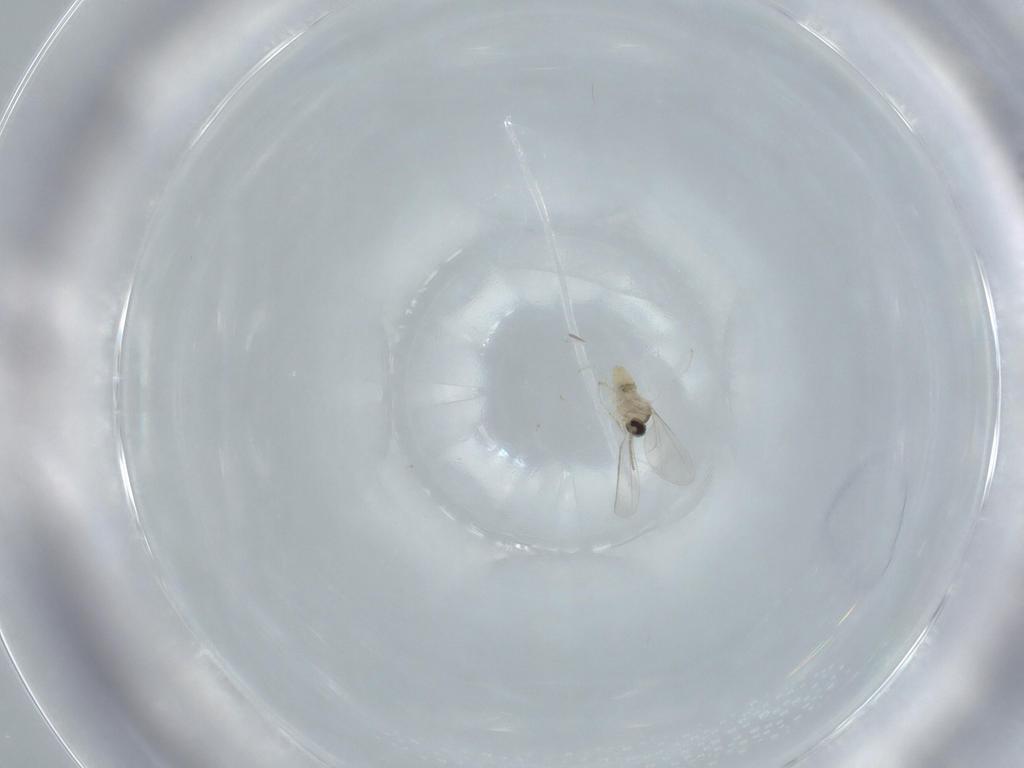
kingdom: Animalia
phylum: Arthropoda
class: Insecta
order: Diptera
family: Cecidomyiidae
